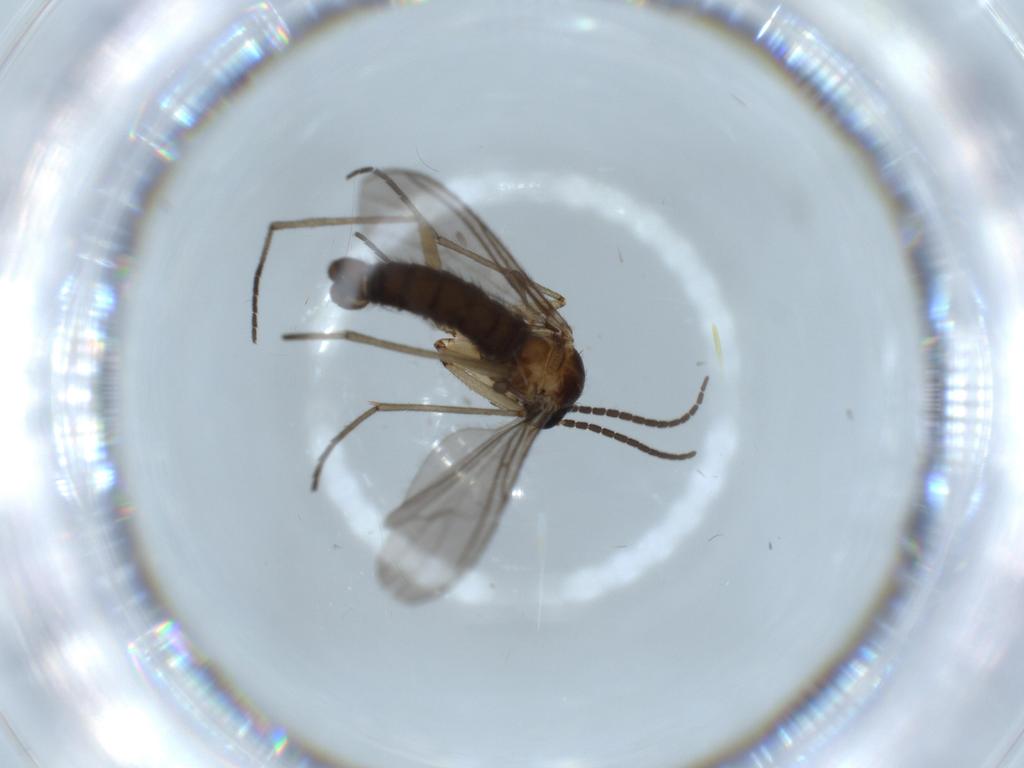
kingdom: Animalia
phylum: Arthropoda
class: Insecta
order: Diptera
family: Sciaridae
